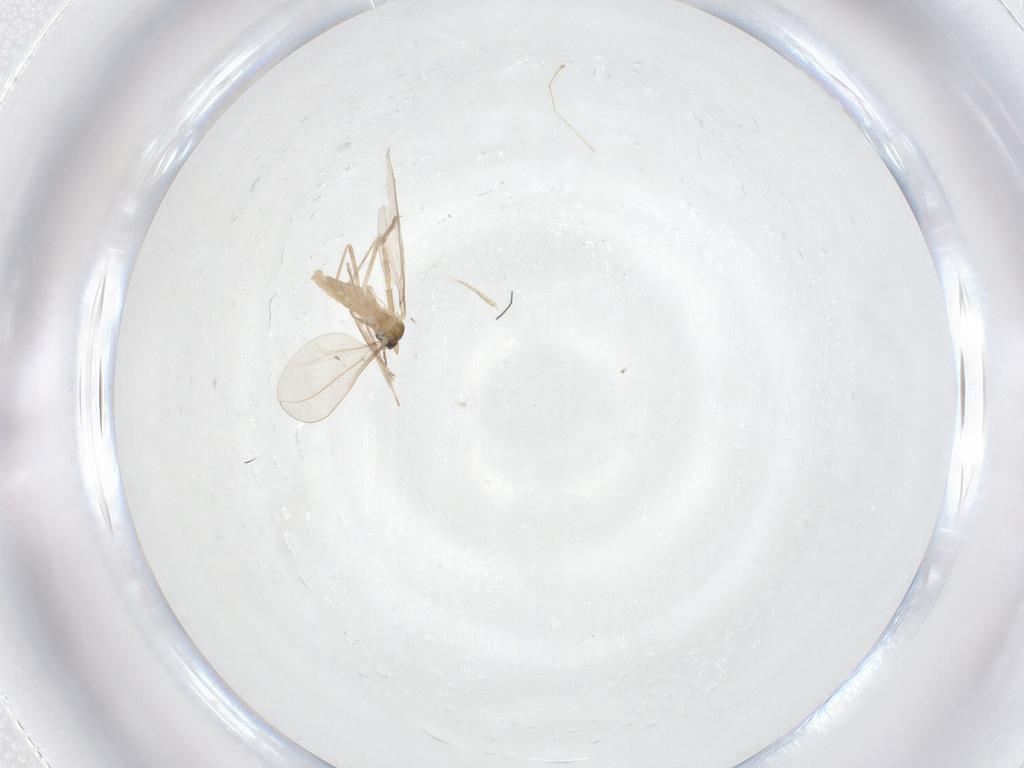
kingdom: Animalia
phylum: Arthropoda
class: Insecta
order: Diptera
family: Cecidomyiidae
